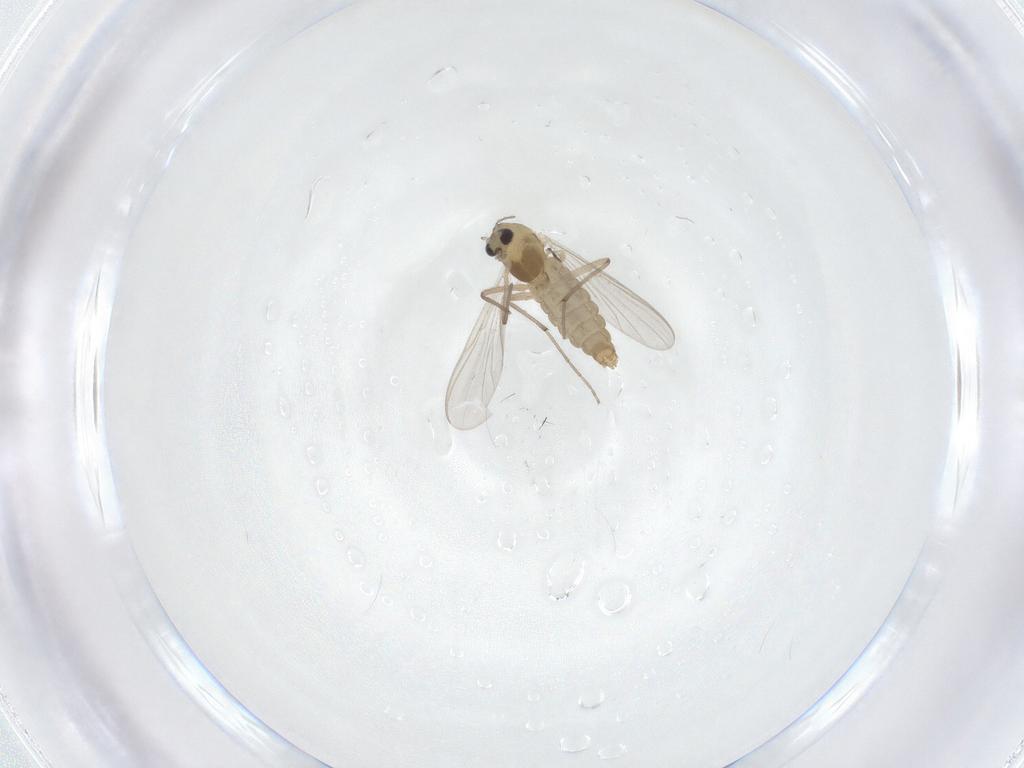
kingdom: Animalia
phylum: Arthropoda
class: Insecta
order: Diptera
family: Chironomidae
